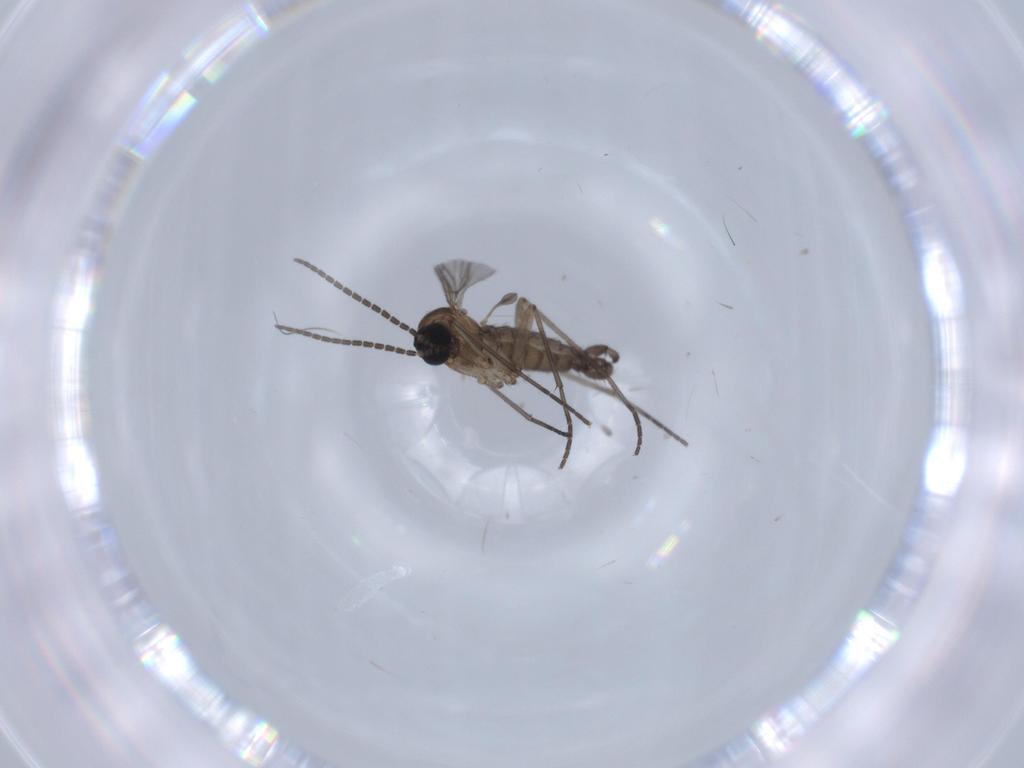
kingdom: Animalia
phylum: Arthropoda
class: Insecta
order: Diptera
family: Sciaridae
